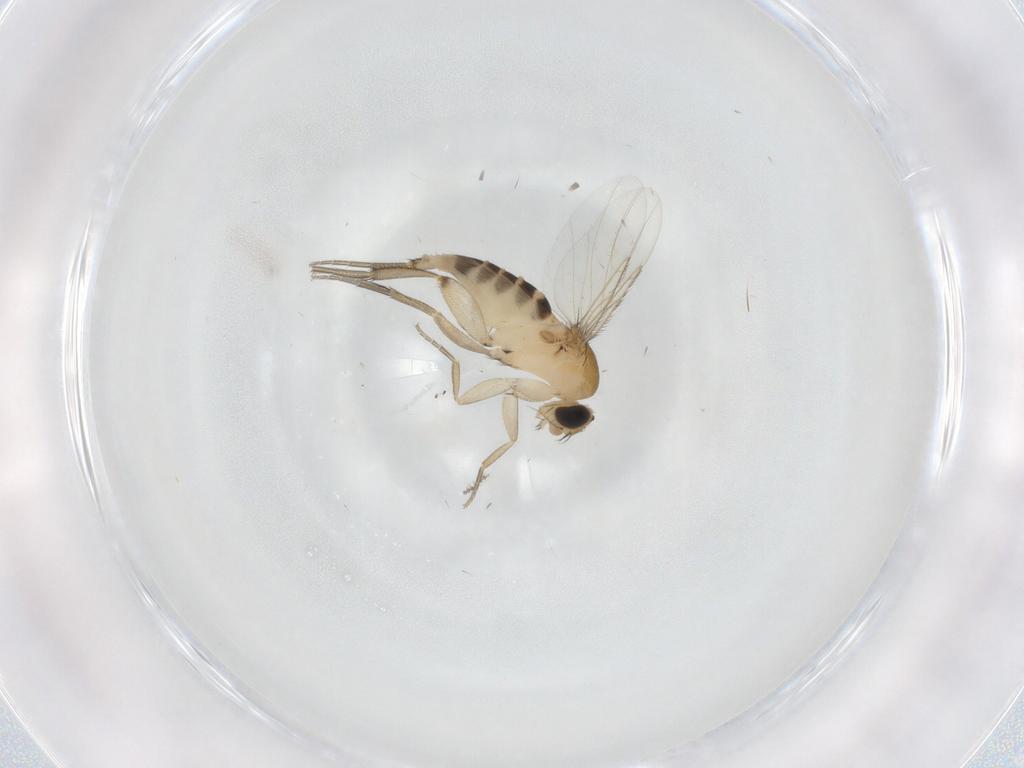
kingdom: Animalia
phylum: Arthropoda
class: Insecta
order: Diptera
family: Cecidomyiidae
